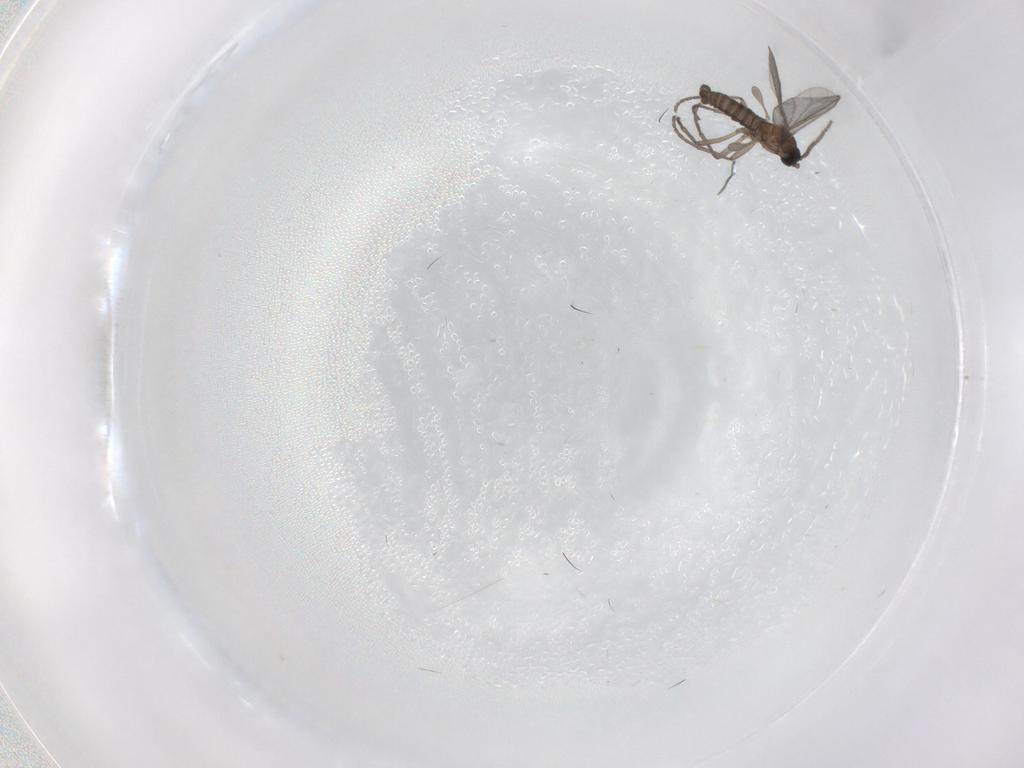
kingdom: Animalia
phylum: Arthropoda
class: Insecta
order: Diptera
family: Sciaridae
